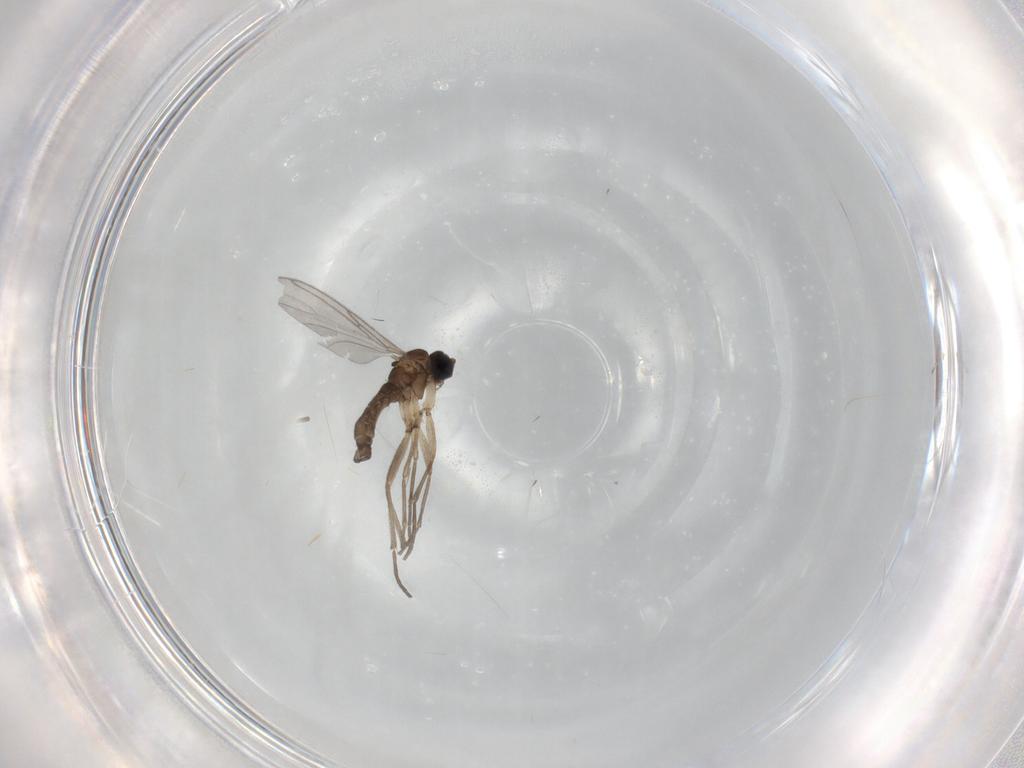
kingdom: Animalia
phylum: Arthropoda
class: Insecta
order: Diptera
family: Sciaridae
